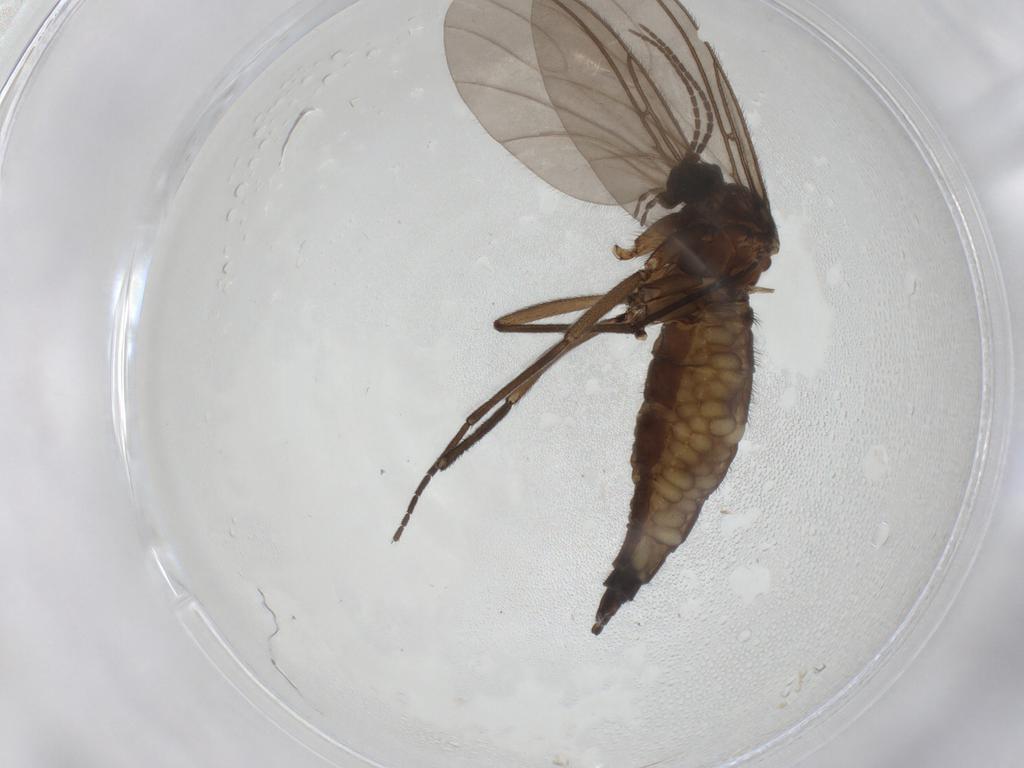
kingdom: Animalia
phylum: Arthropoda
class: Insecta
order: Diptera
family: Sciaridae
